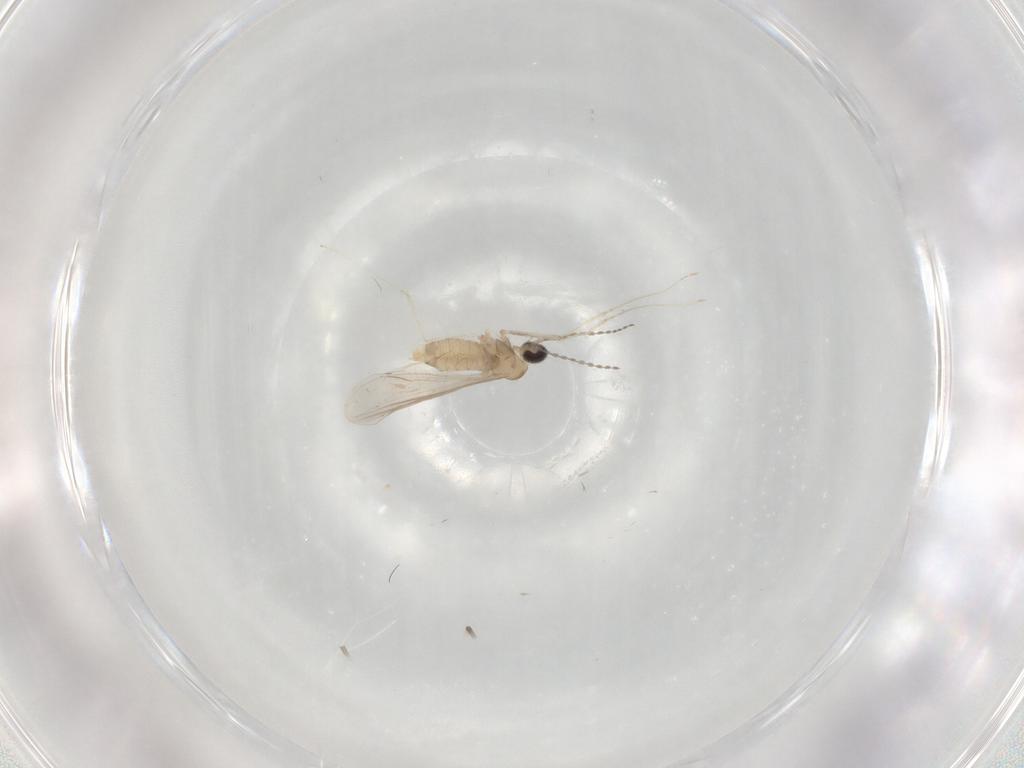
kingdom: Animalia
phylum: Arthropoda
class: Insecta
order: Diptera
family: Cecidomyiidae
